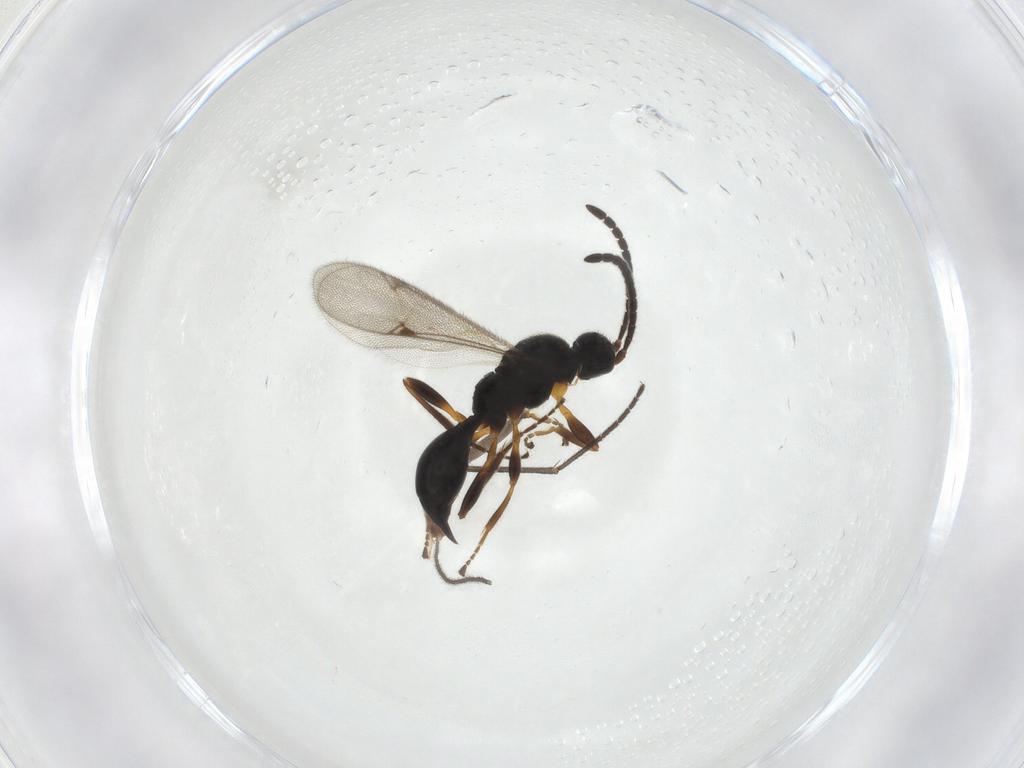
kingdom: Animalia
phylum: Arthropoda
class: Insecta
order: Hymenoptera
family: Proctotrupidae
